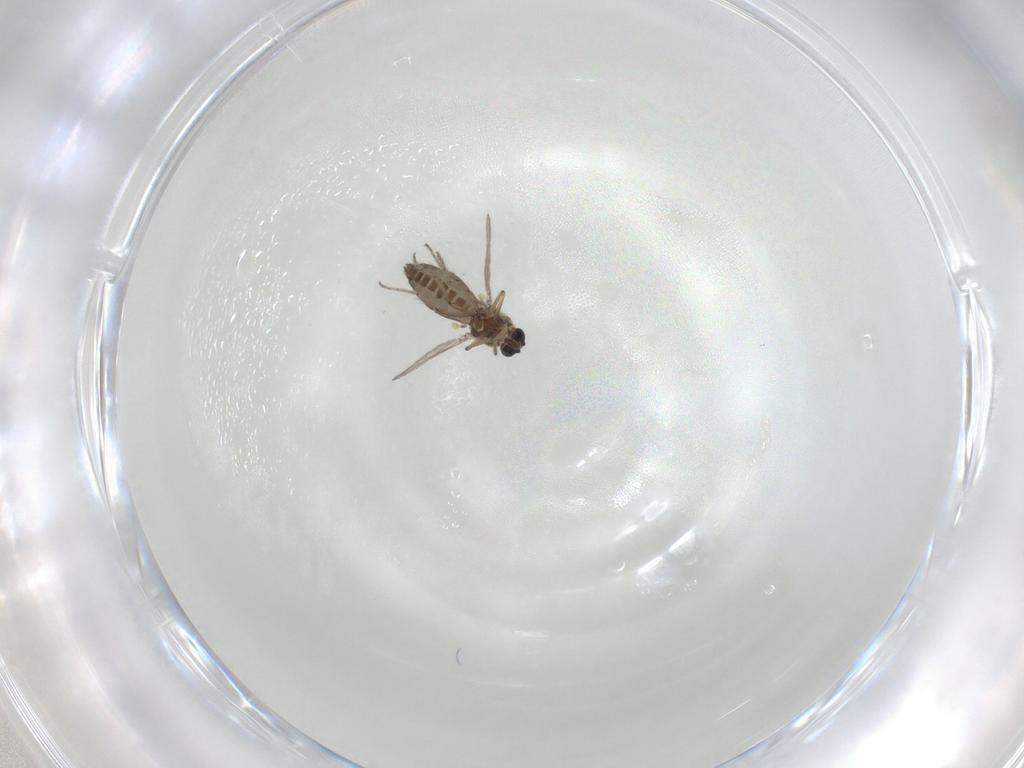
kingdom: Animalia
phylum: Arthropoda
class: Insecta
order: Diptera
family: Ceratopogonidae
